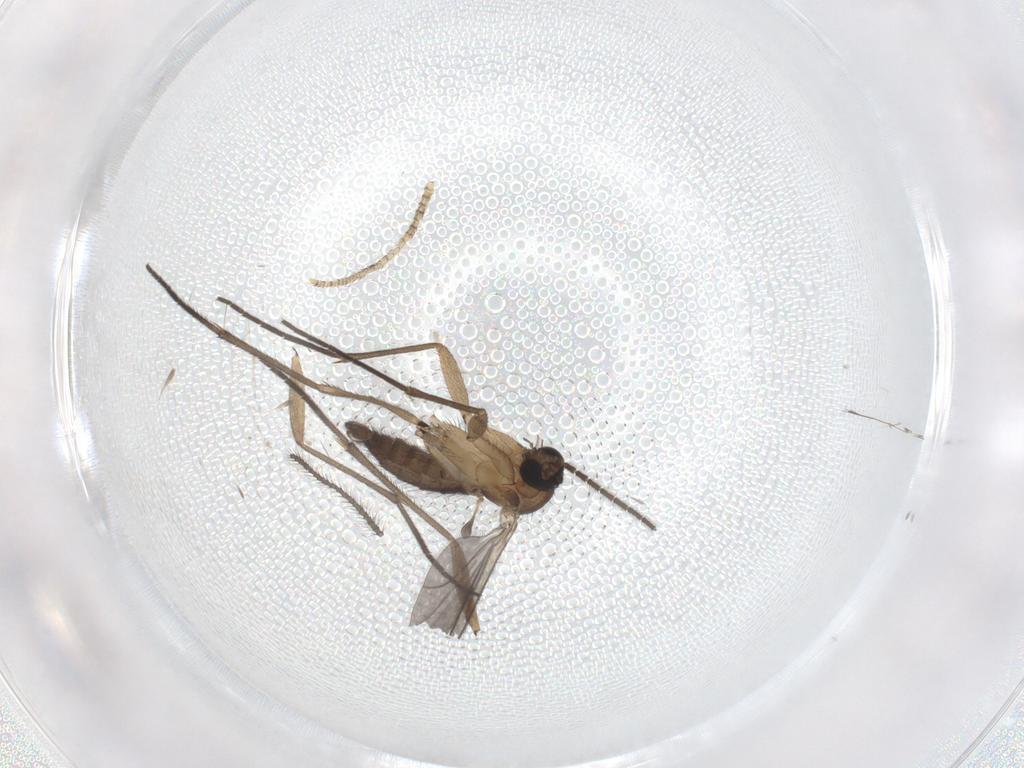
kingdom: Animalia
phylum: Arthropoda
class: Insecta
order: Diptera
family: Sciaridae
